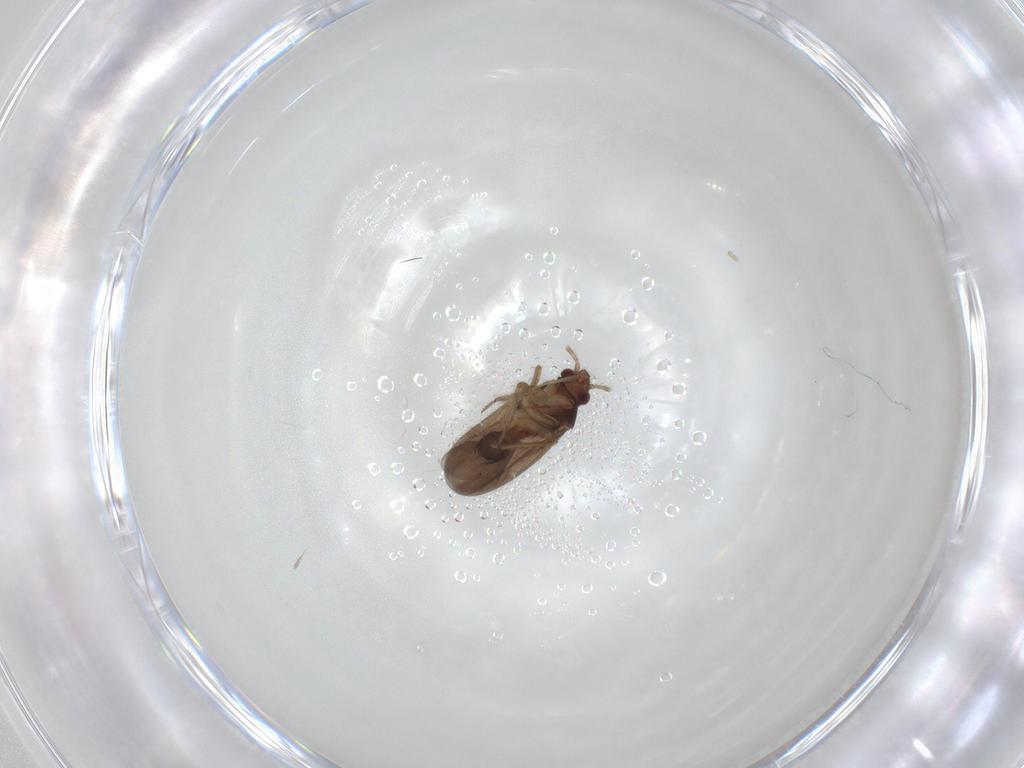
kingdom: Animalia
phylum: Arthropoda
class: Insecta
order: Hemiptera
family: Ceratocombidae
